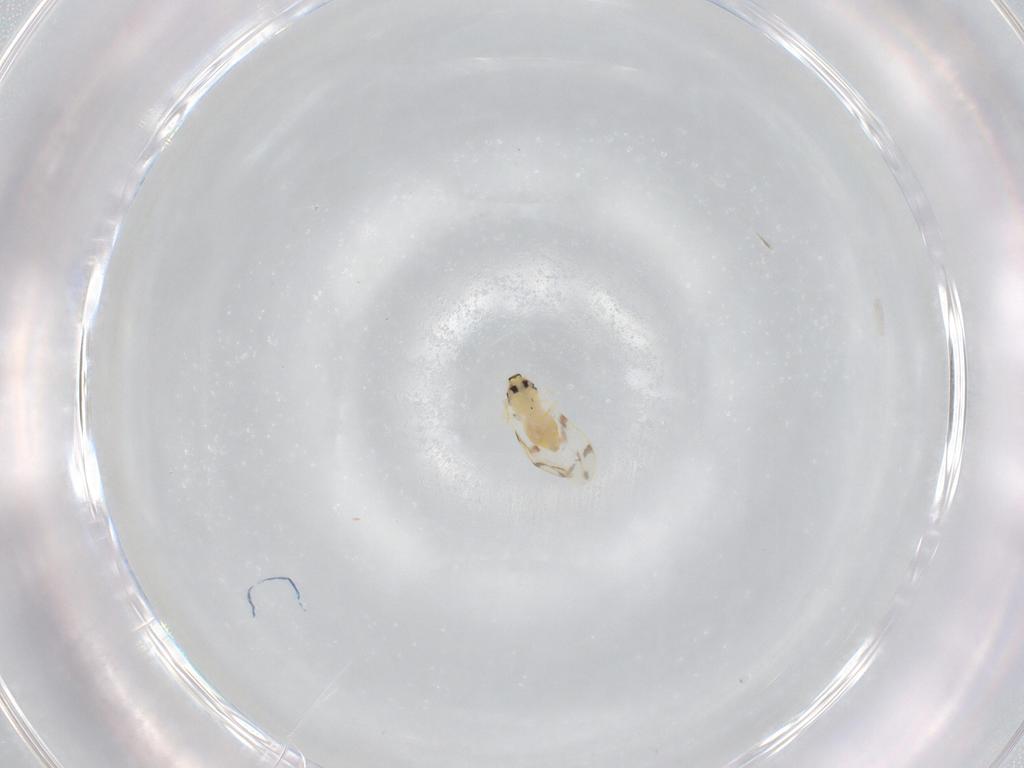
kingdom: Animalia
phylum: Arthropoda
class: Insecta
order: Hemiptera
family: Aleyrodidae
